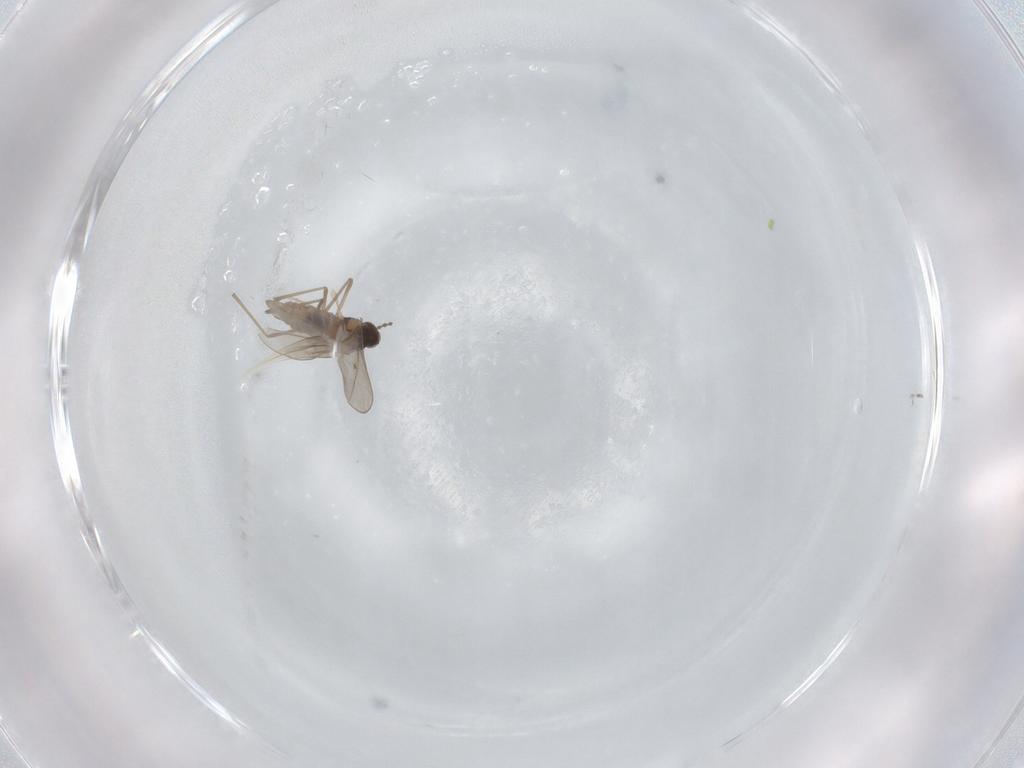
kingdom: Animalia
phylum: Arthropoda
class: Insecta
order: Diptera
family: Cecidomyiidae
